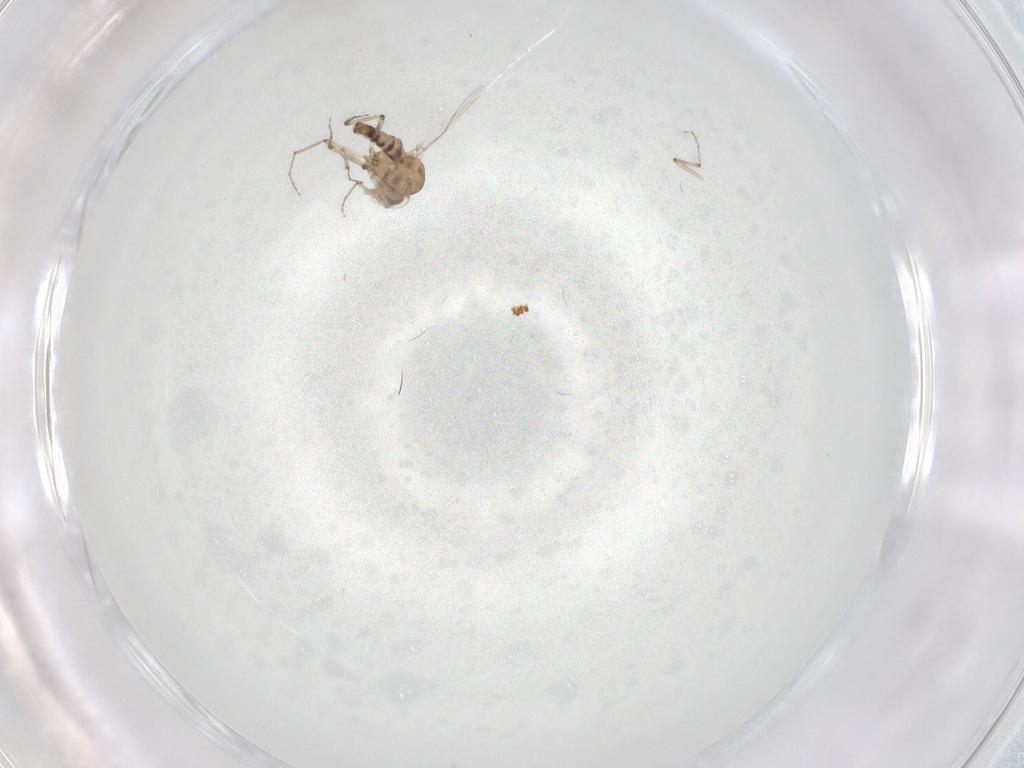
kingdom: Animalia
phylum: Arthropoda
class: Insecta
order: Diptera
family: Ceratopogonidae
